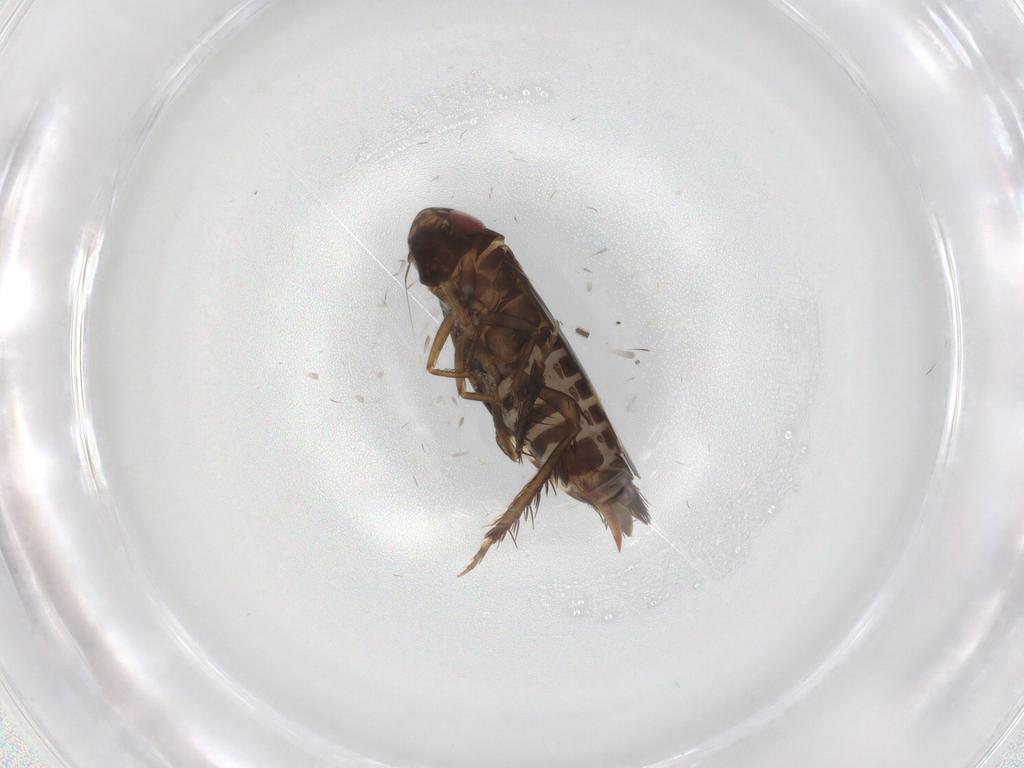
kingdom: Animalia
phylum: Arthropoda
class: Insecta
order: Hemiptera
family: Cicadellidae
